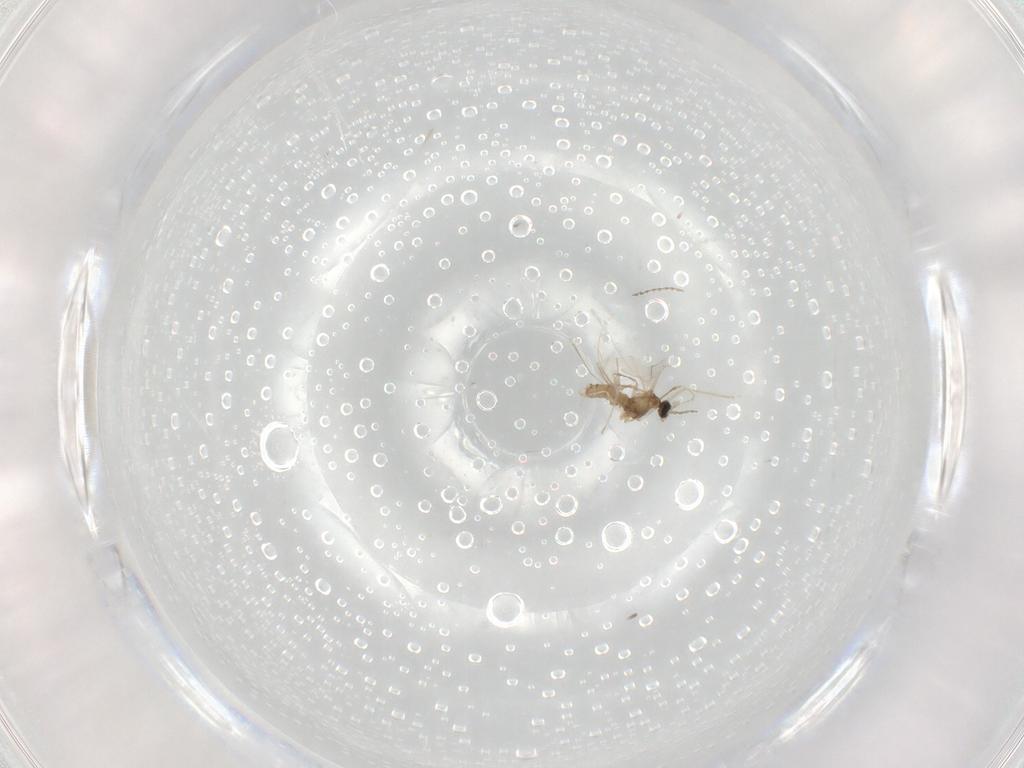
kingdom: Animalia
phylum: Arthropoda
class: Insecta
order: Diptera
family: Cecidomyiidae
